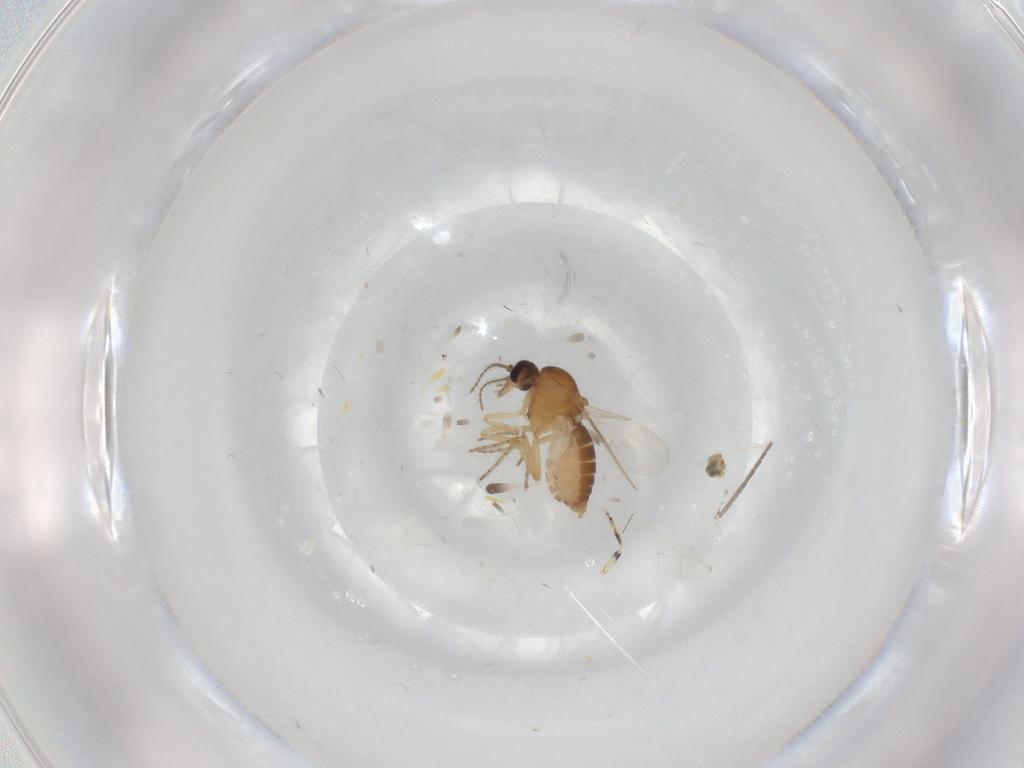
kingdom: Animalia
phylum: Arthropoda
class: Insecta
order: Diptera
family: Ceratopogonidae
